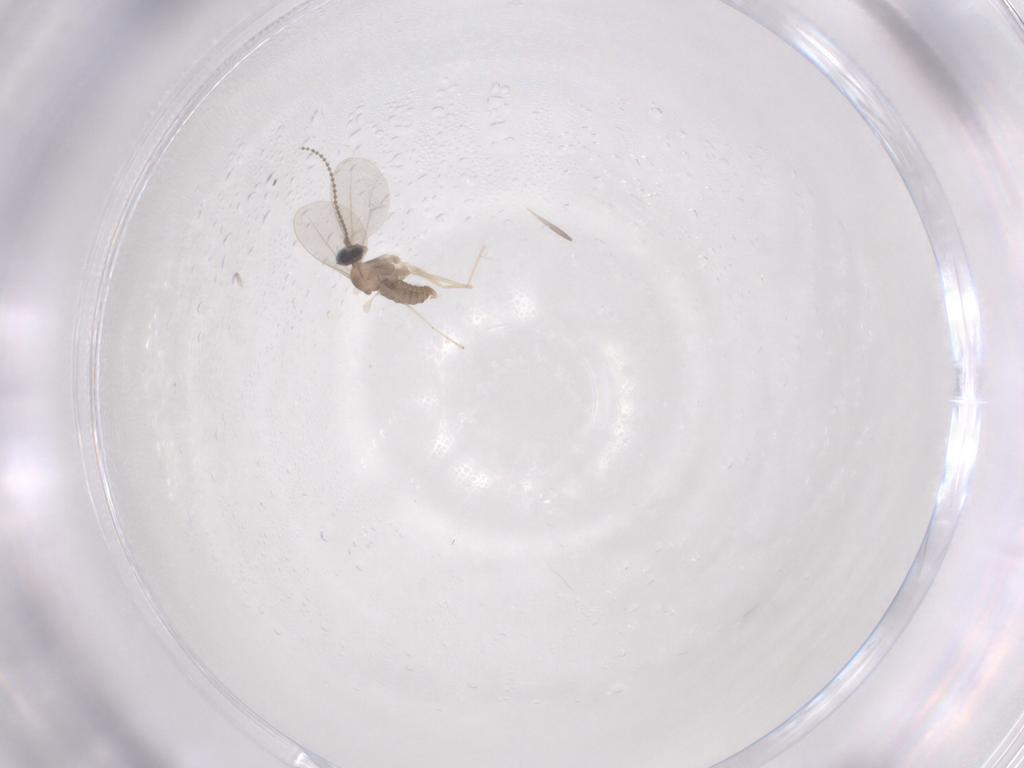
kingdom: Animalia
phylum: Arthropoda
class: Insecta
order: Diptera
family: Cecidomyiidae
